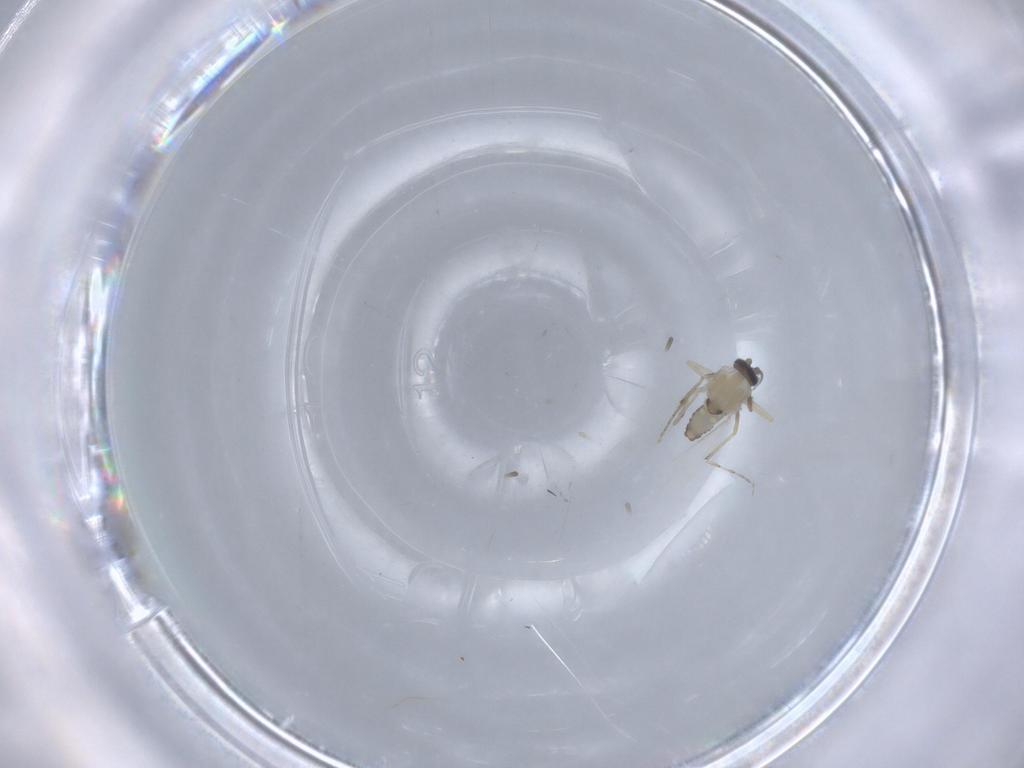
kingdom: Animalia
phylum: Arthropoda
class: Insecta
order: Diptera
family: Ceratopogonidae
